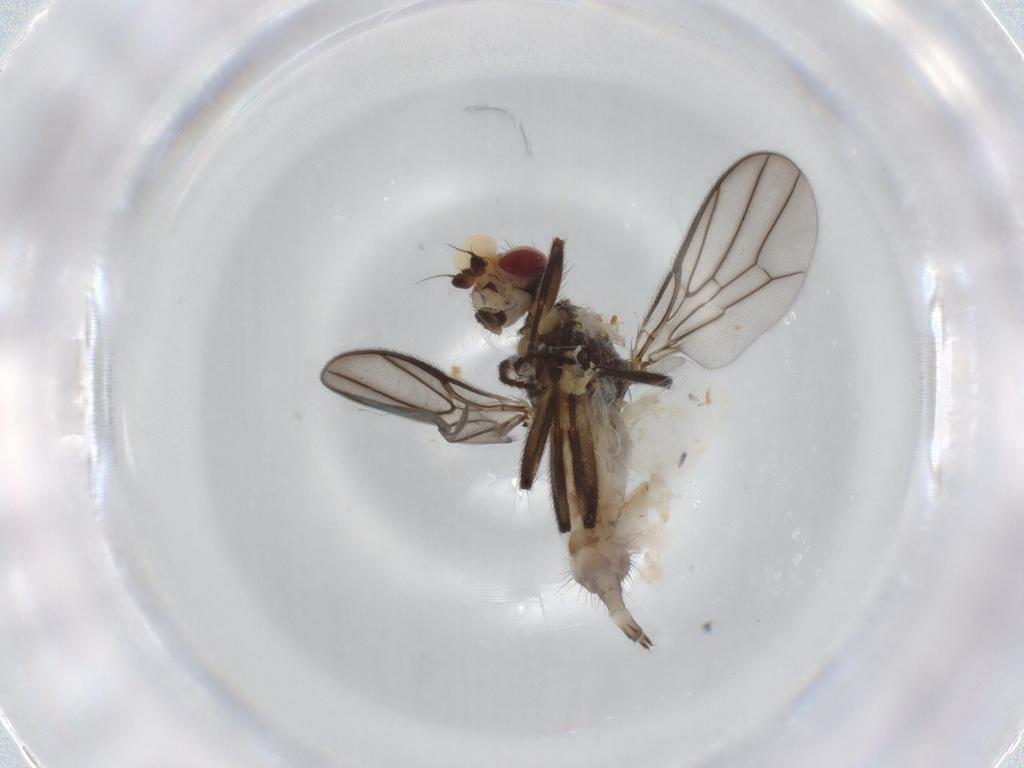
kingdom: Animalia
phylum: Arthropoda
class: Insecta
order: Diptera
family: Chloropidae
